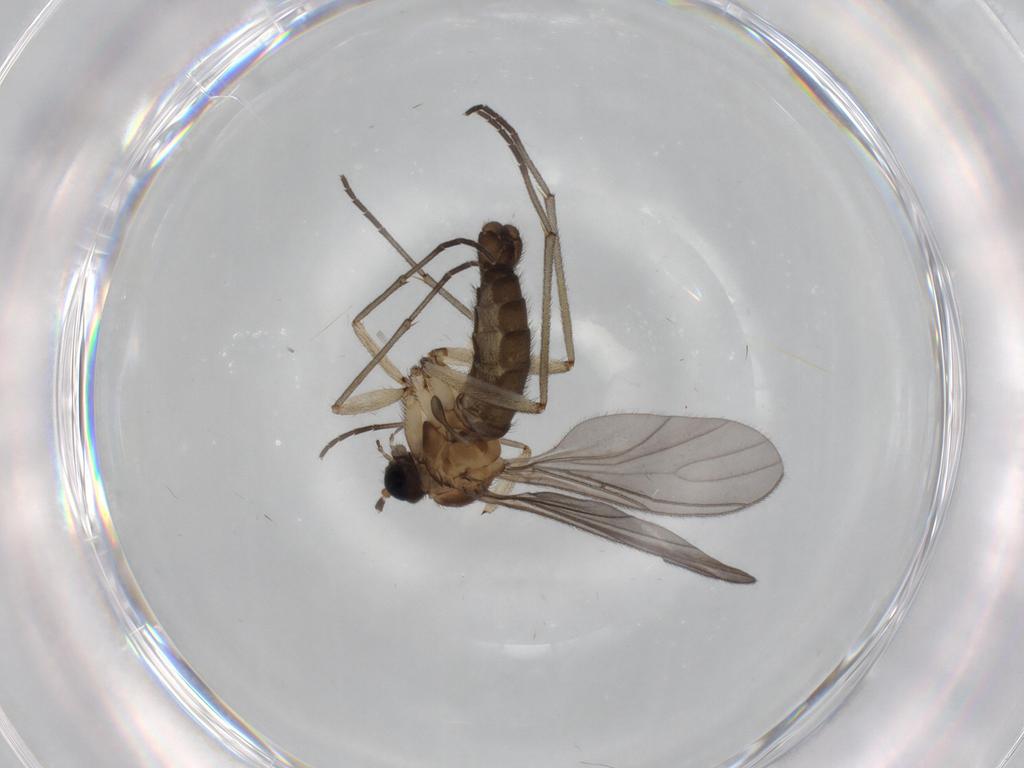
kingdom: Animalia
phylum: Arthropoda
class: Insecta
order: Diptera
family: Sciaridae
